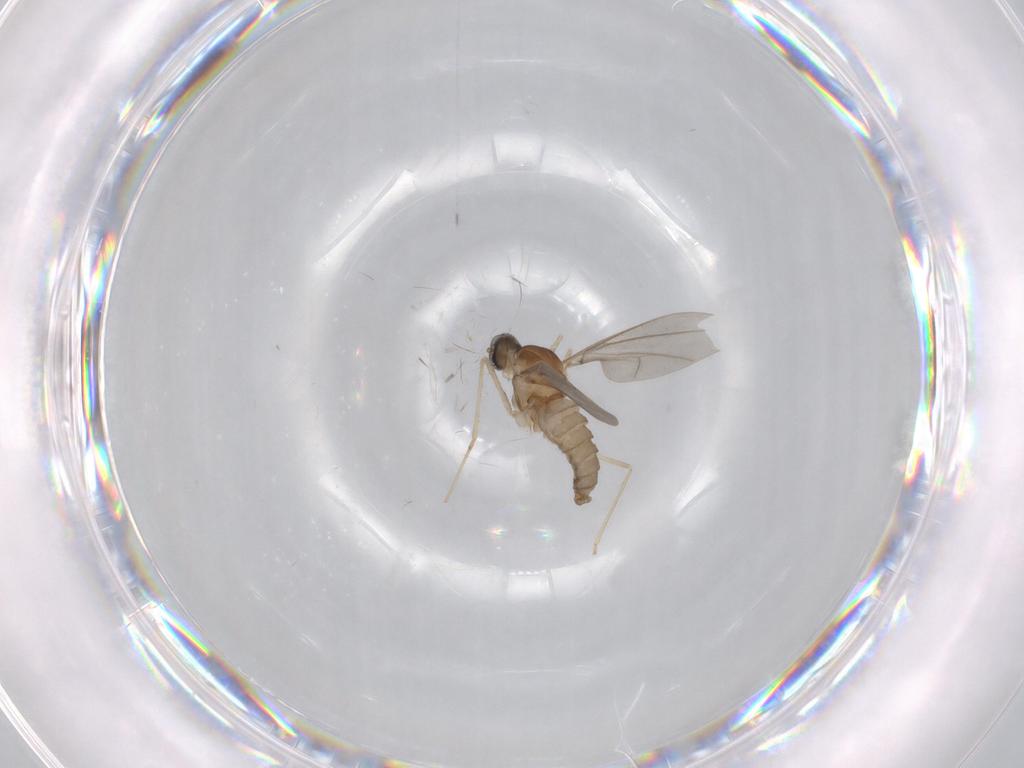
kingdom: Animalia
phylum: Arthropoda
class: Insecta
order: Diptera
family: Cecidomyiidae
